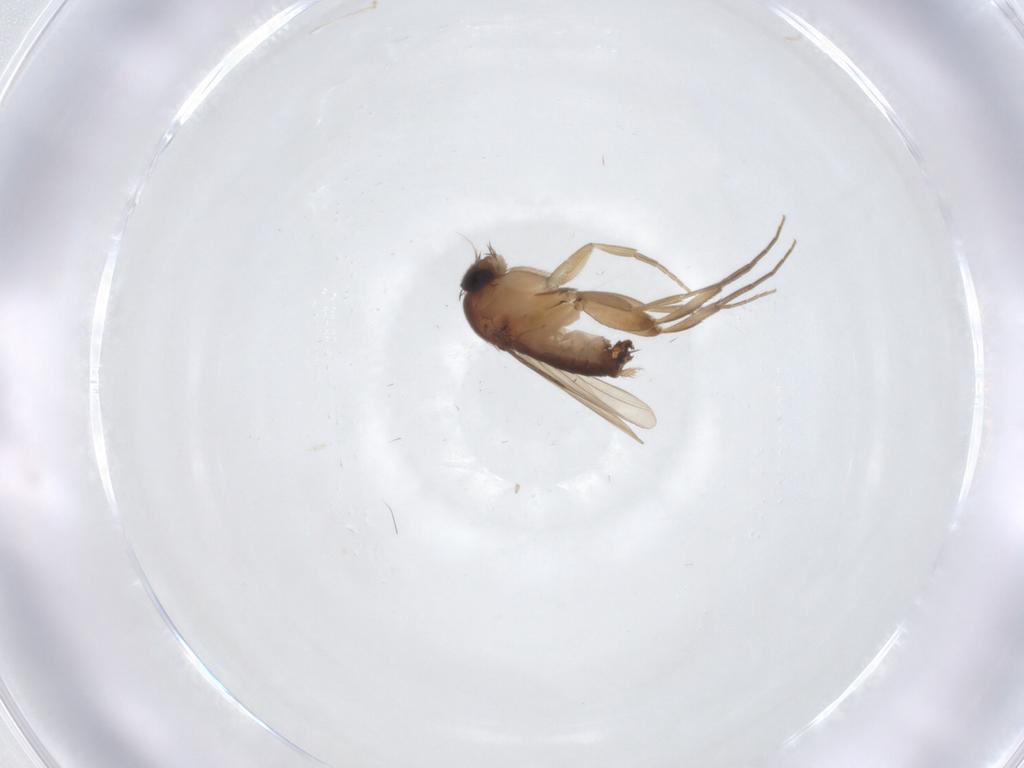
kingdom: Animalia
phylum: Arthropoda
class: Insecta
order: Diptera
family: Phoridae
